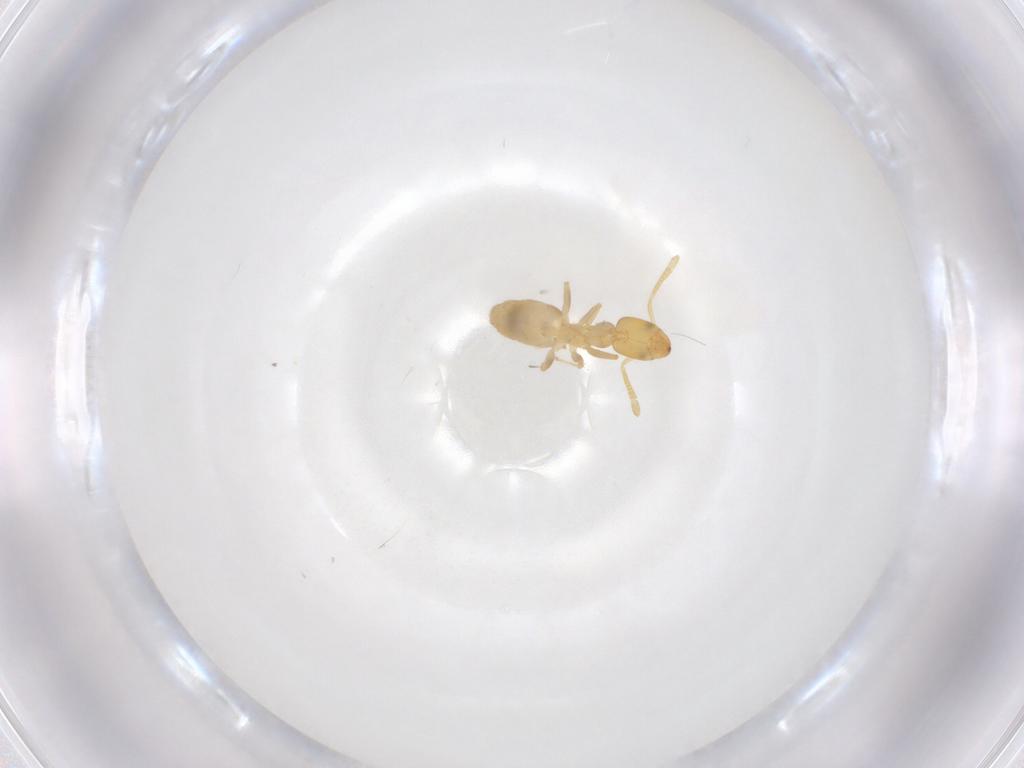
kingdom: Animalia
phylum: Arthropoda
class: Insecta
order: Hymenoptera
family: Formicidae
